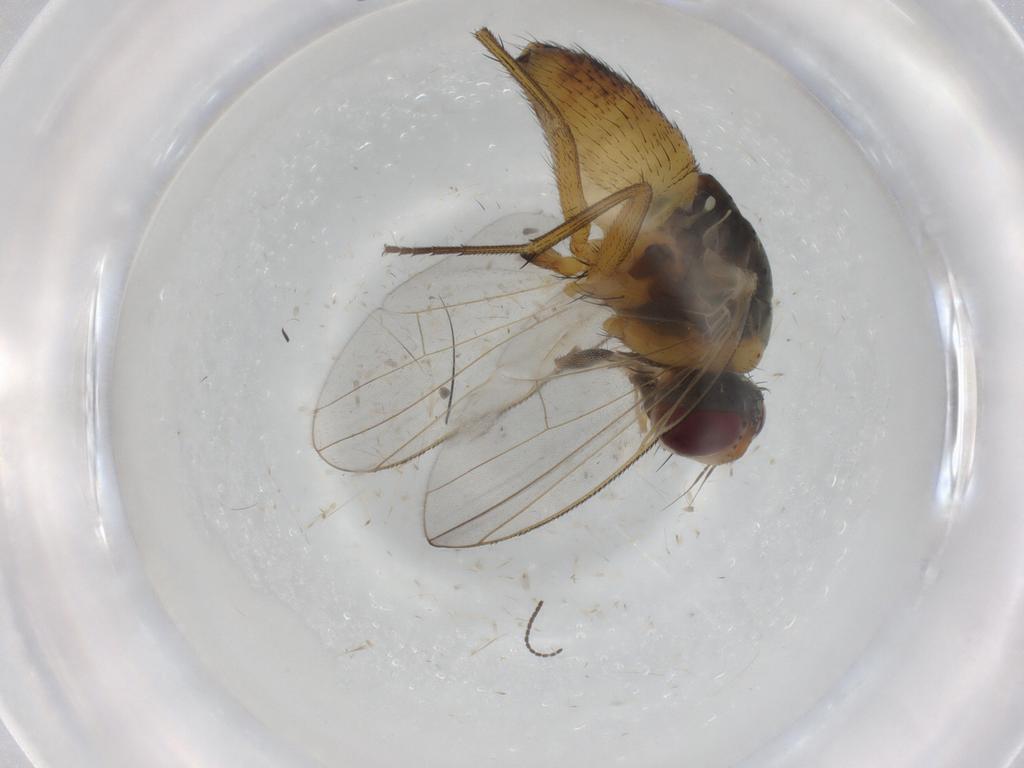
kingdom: Animalia
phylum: Arthropoda
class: Insecta
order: Diptera
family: Muscidae
